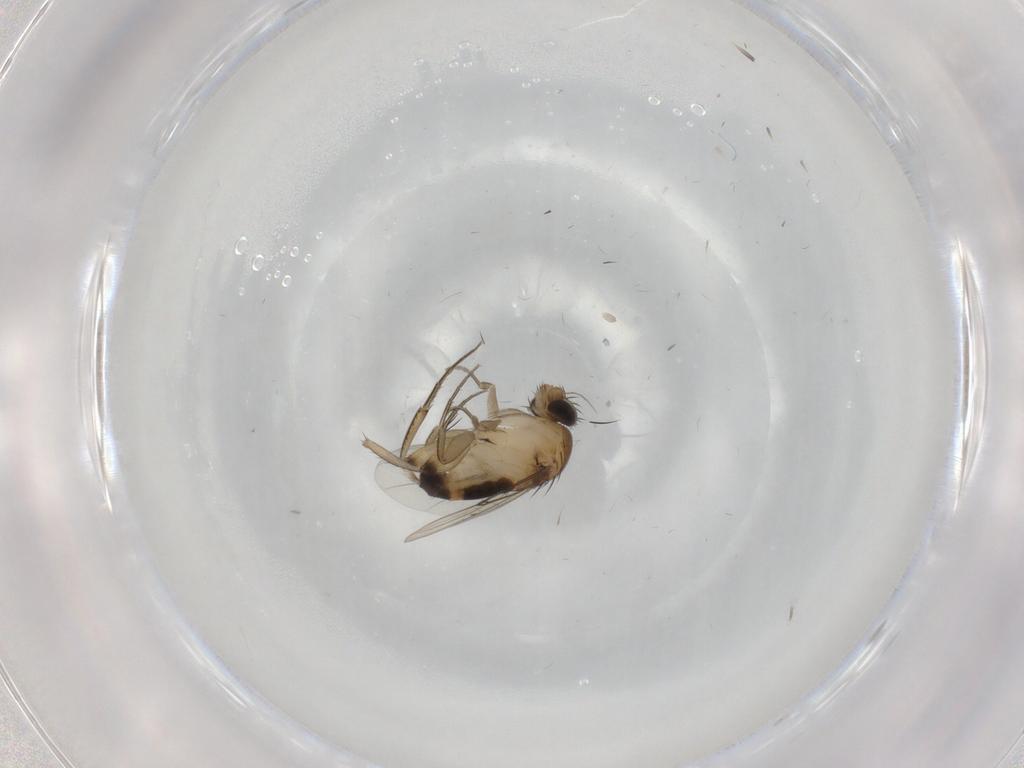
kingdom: Animalia
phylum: Arthropoda
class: Insecta
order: Diptera
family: Phoridae
